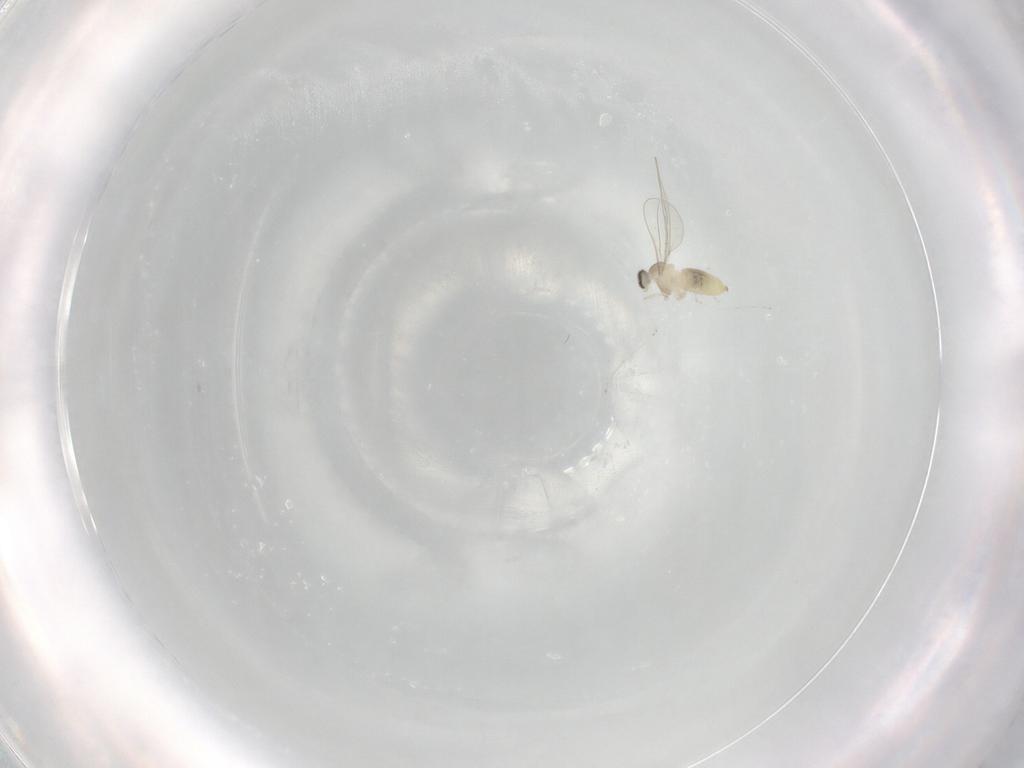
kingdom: Animalia
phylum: Arthropoda
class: Insecta
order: Diptera
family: Cecidomyiidae
